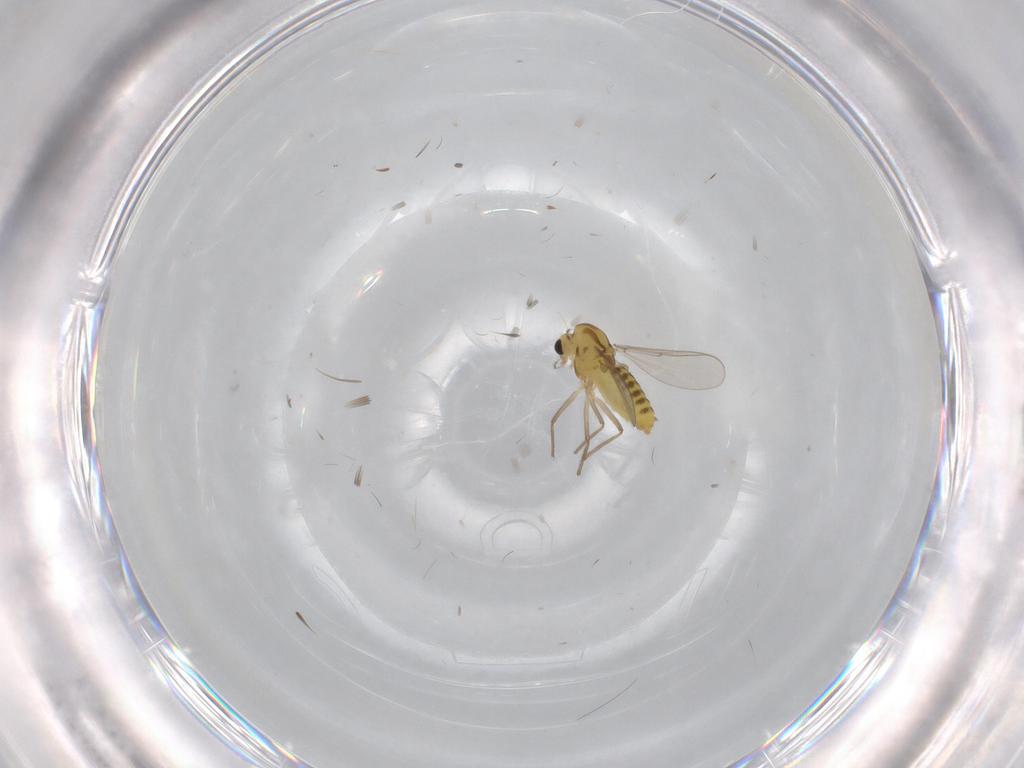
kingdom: Animalia
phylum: Arthropoda
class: Insecta
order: Diptera
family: Chironomidae
